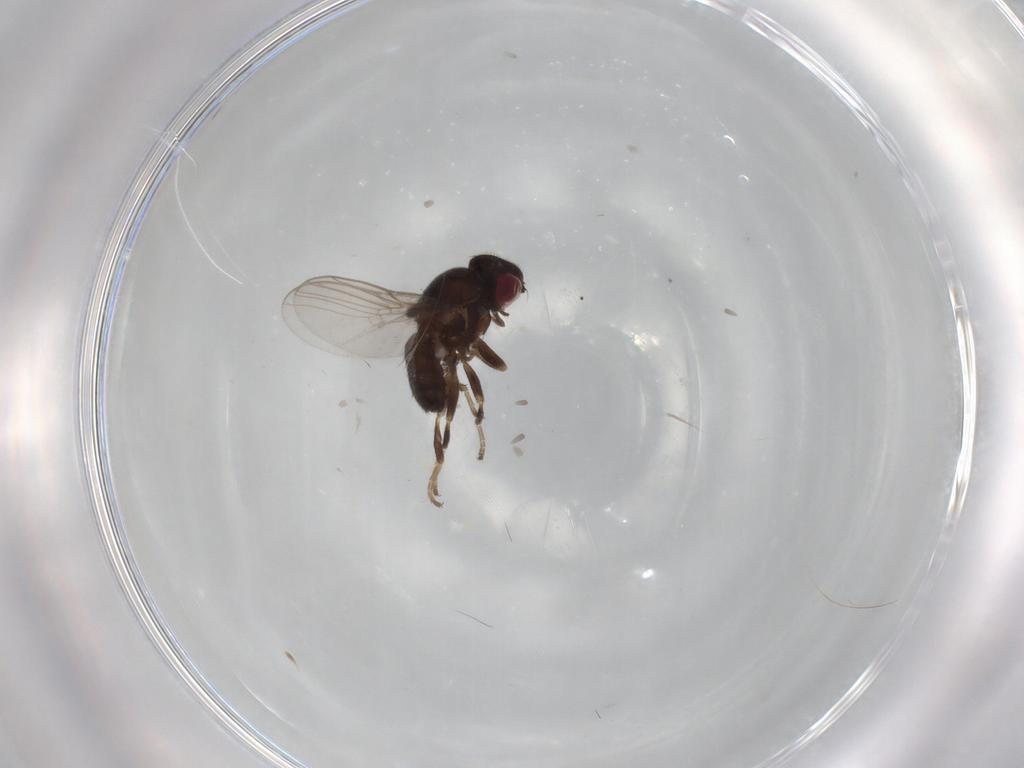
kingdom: Animalia
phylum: Arthropoda
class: Insecta
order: Diptera
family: Chloropidae
